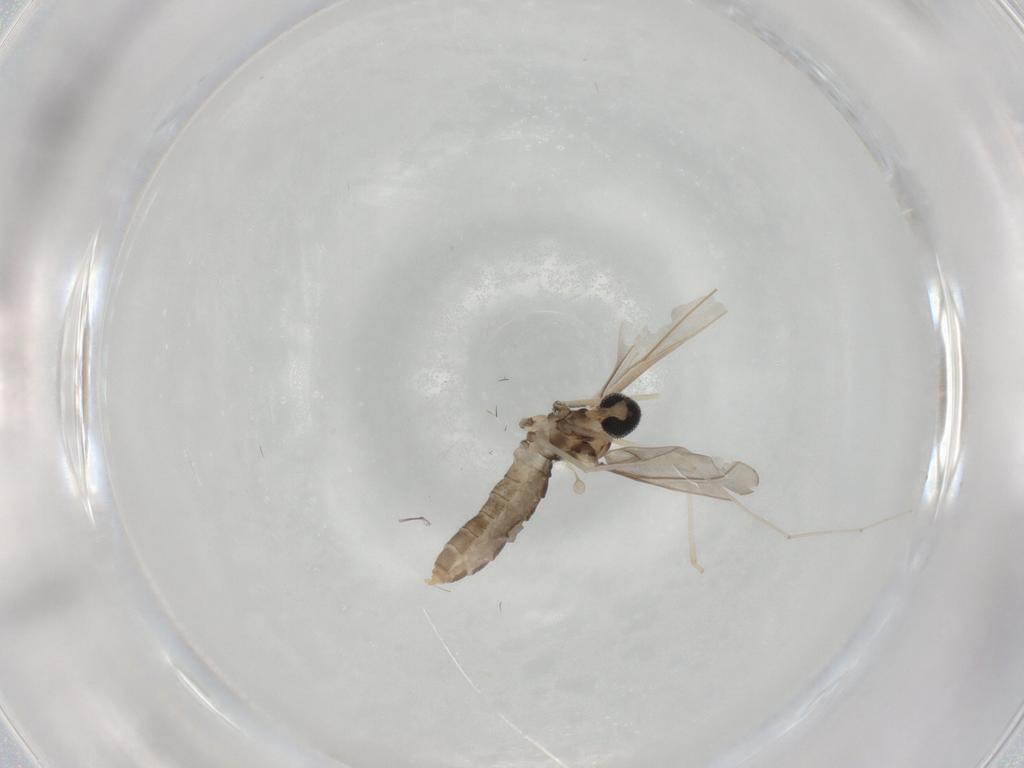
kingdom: Animalia
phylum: Arthropoda
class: Insecta
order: Diptera
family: Cecidomyiidae
